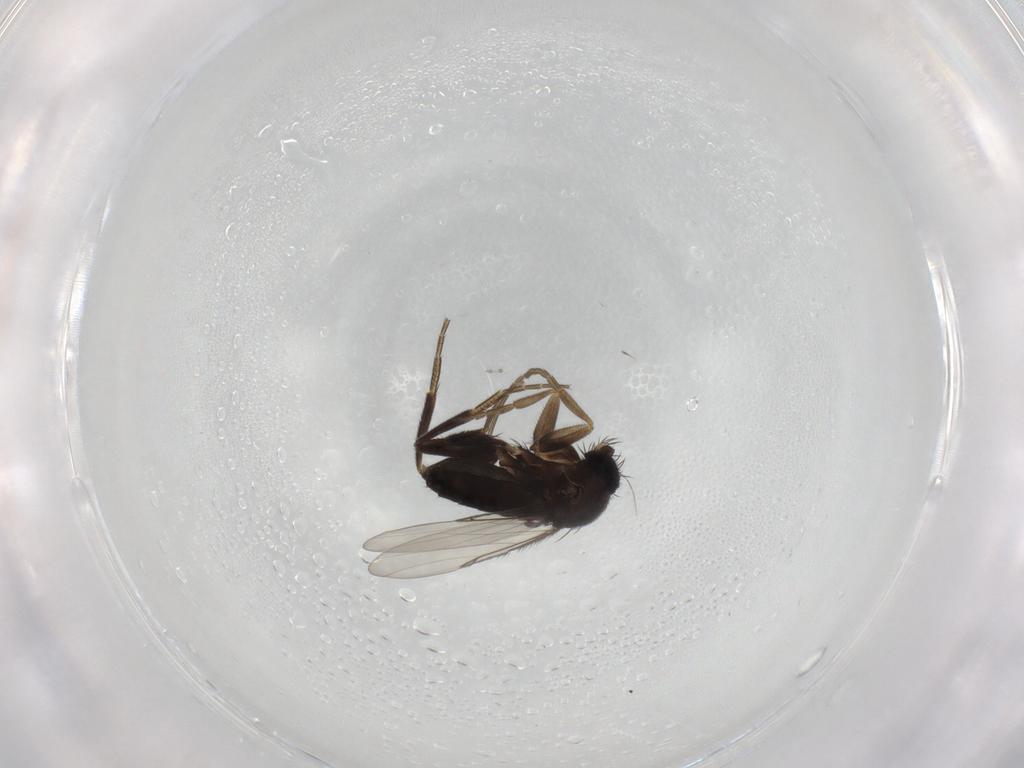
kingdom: Animalia
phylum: Arthropoda
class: Insecta
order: Diptera
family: Phoridae
